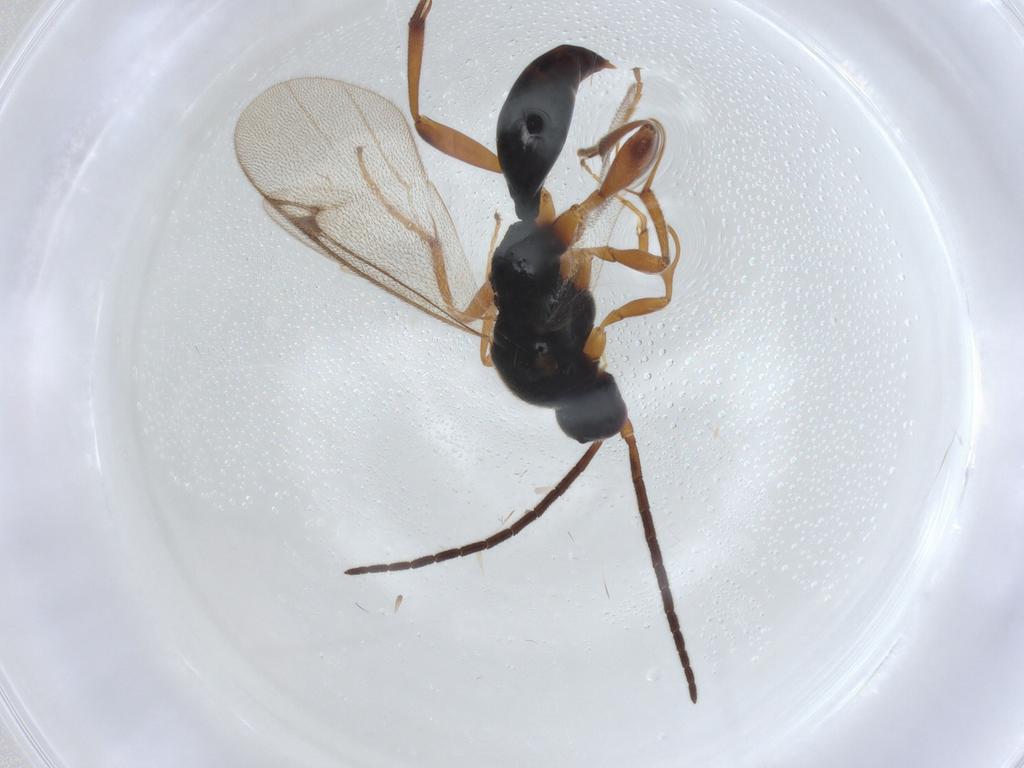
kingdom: Animalia
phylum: Arthropoda
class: Insecta
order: Hymenoptera
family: Proctotrupidae
